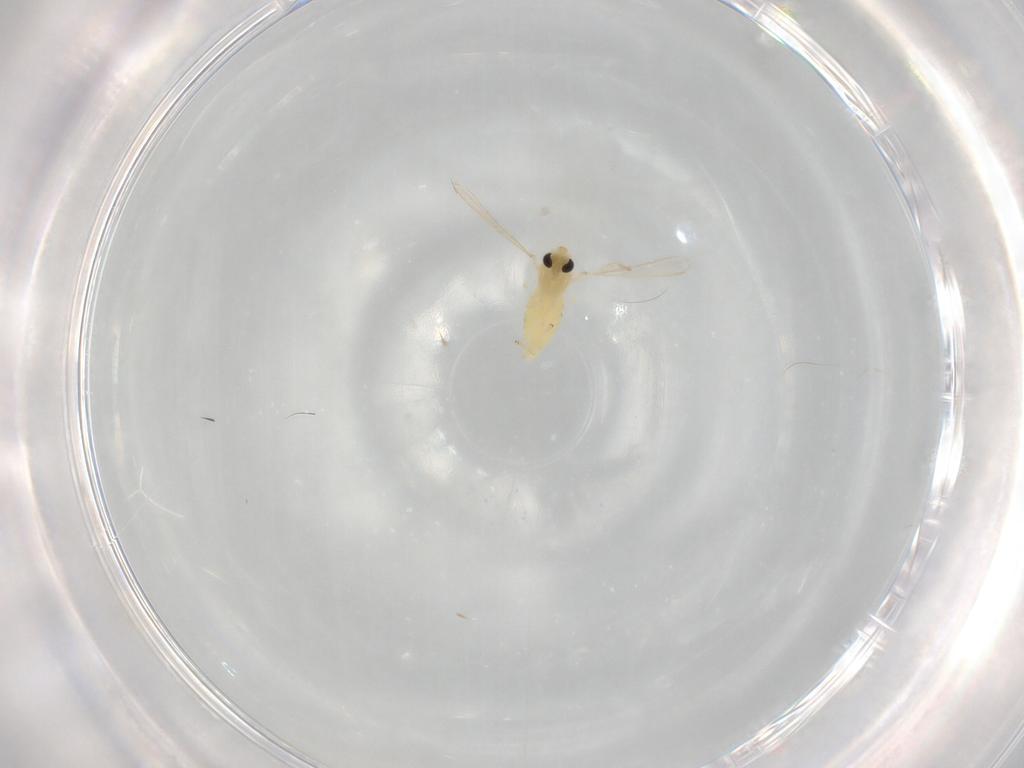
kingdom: Animalia
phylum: Arthropoda
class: Insecta
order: Diptera
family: Chironomidae
